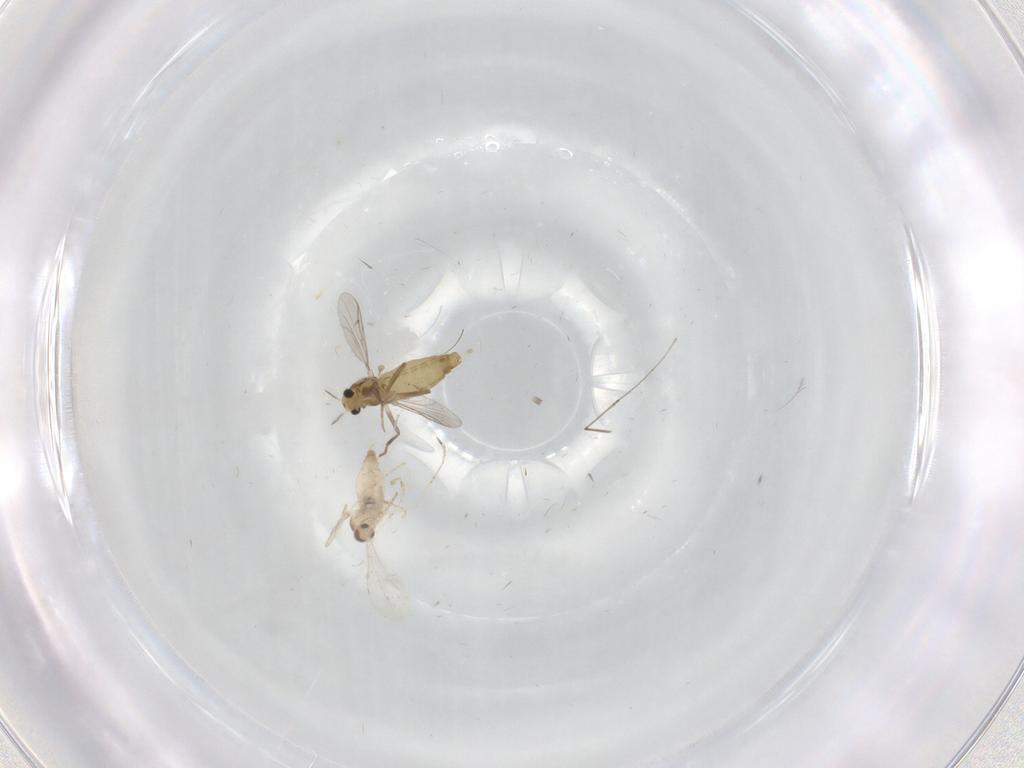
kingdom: Animalia
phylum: Arthropoda
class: Insecta
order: Diptera
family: Chironomidae
